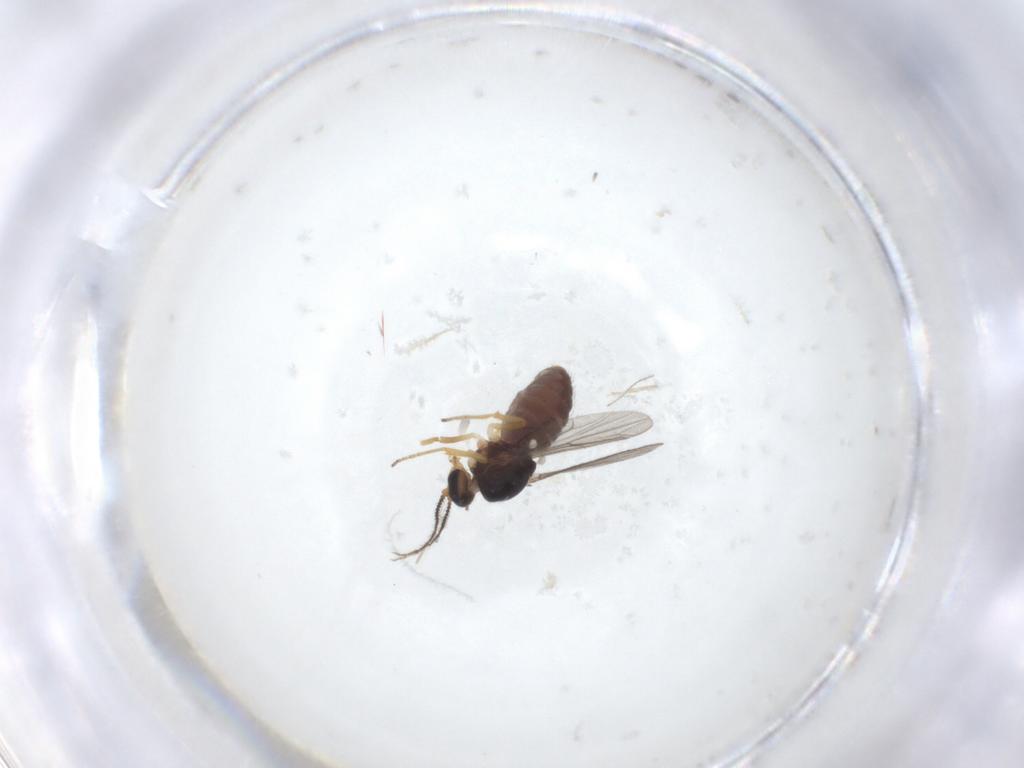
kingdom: Animalia
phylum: Arthropoda
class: Insecta
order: Diptera
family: Ceratopogonidae
